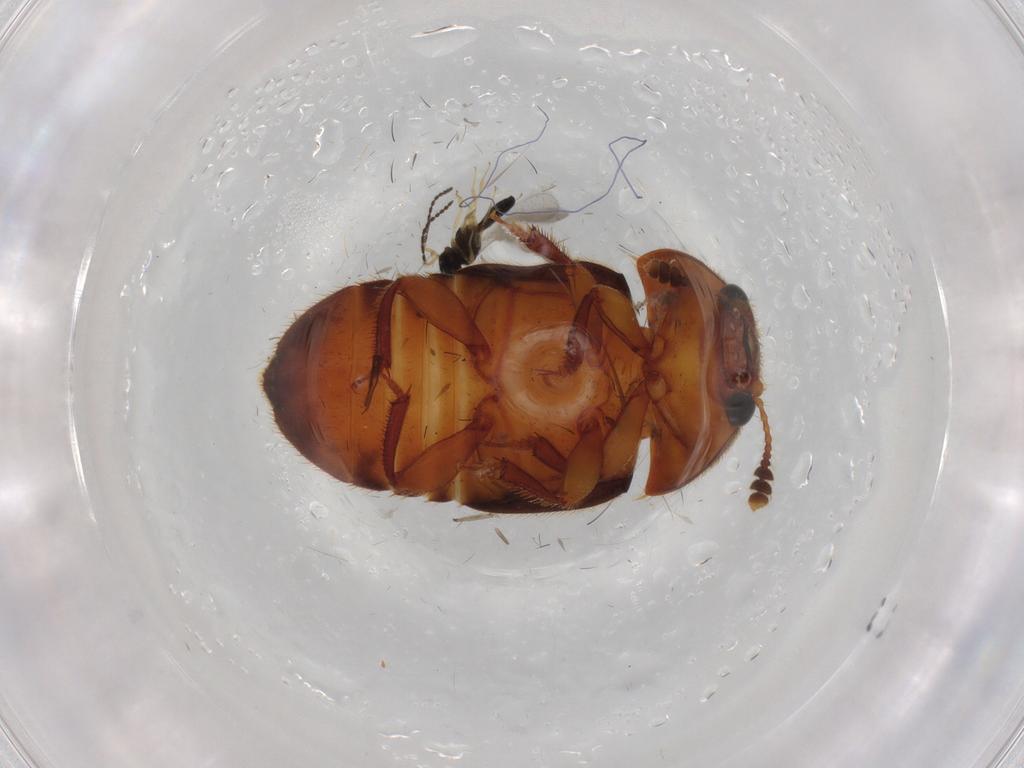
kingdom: Animalia
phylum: Arthropoda
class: Insecta
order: Coleoptera
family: Nitidulidae
